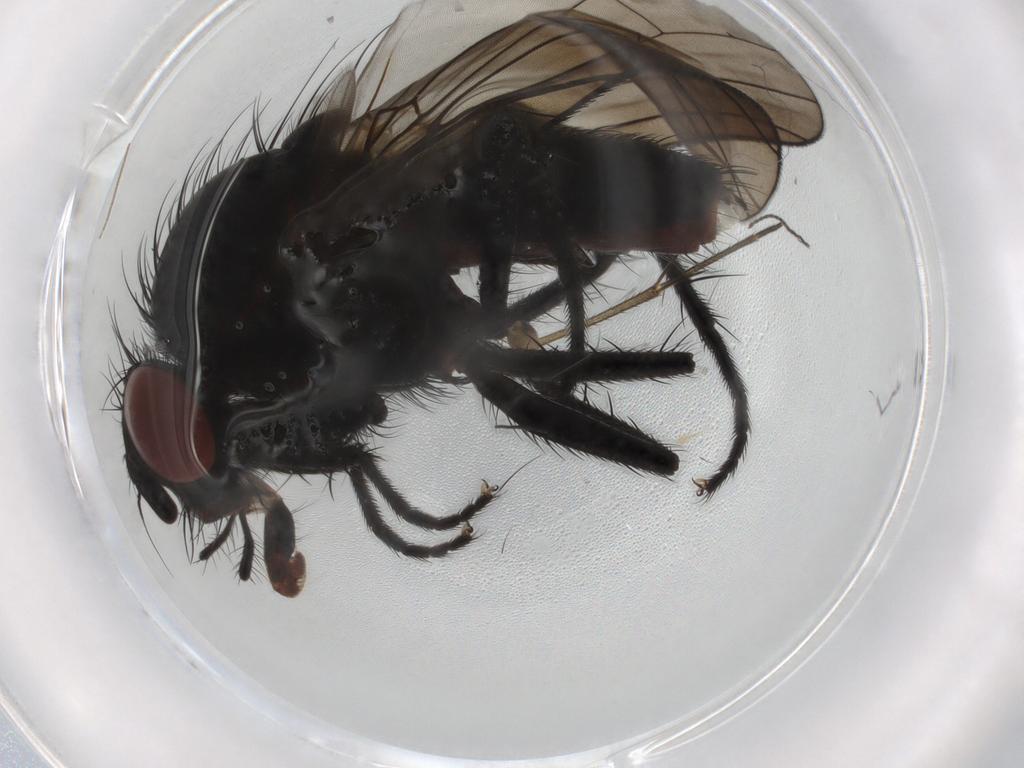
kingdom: Animalia
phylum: Arthropoda
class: Insecta
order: Diptera
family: Anthomyiidae
